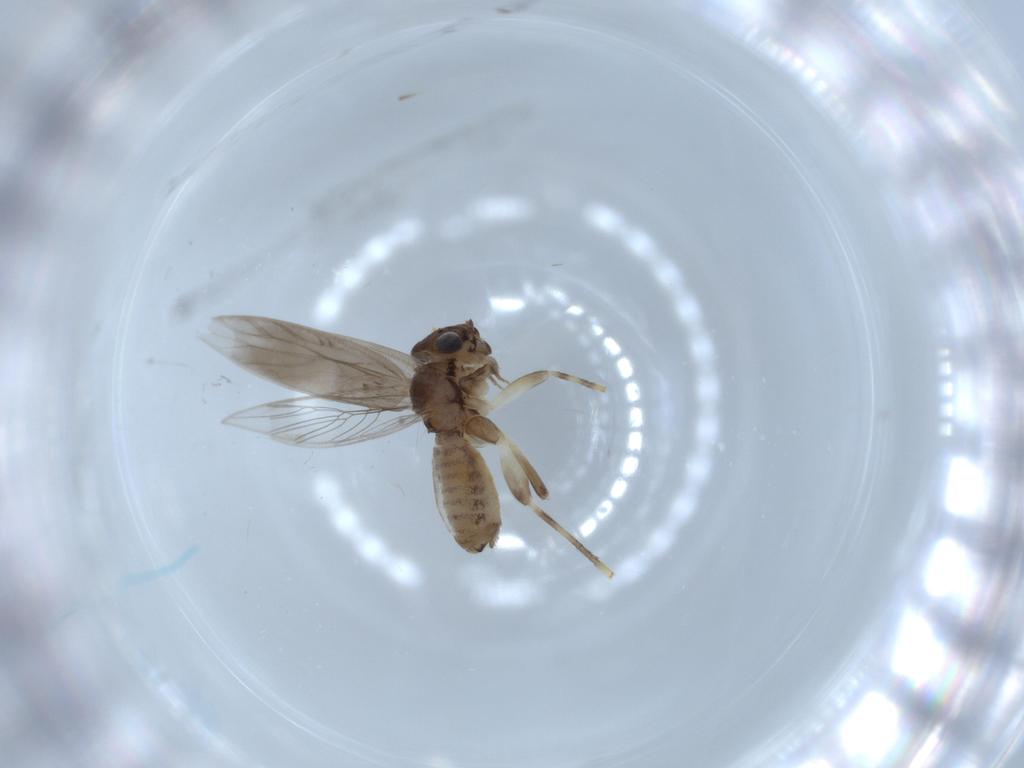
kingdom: Animalia
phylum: Arthropoda
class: Insecta
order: Psocodea
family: Lepidopsocidae
